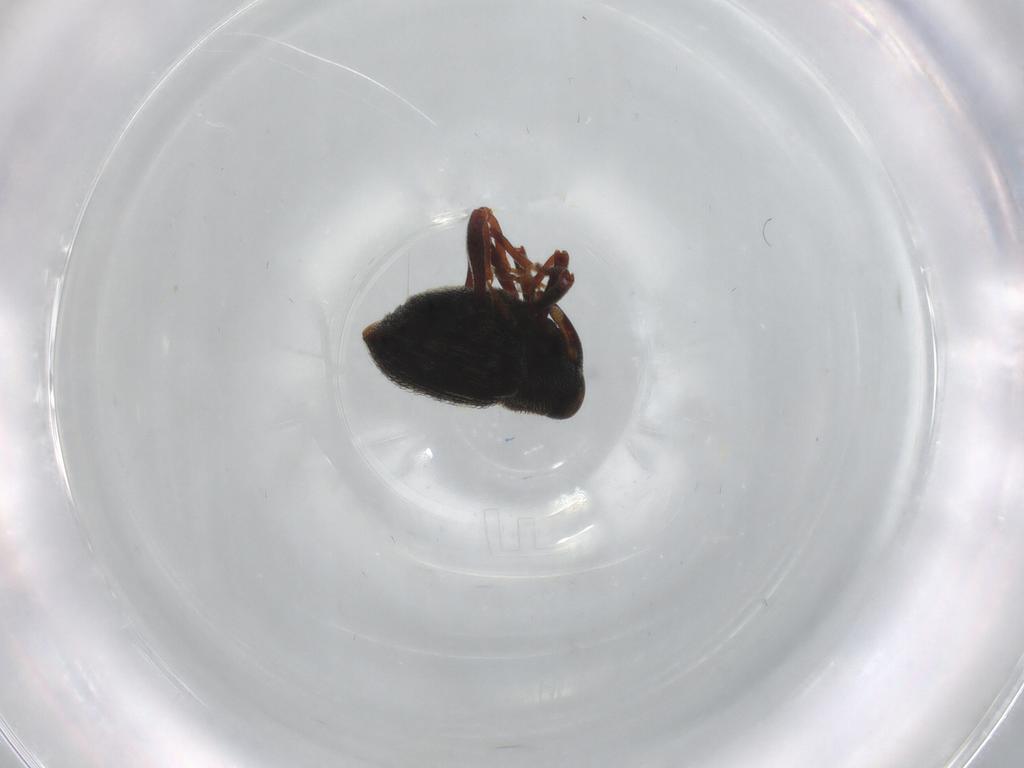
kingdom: Animalia
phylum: Arthropoda
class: Insecta
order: Coleoptera
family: Curculionidae
